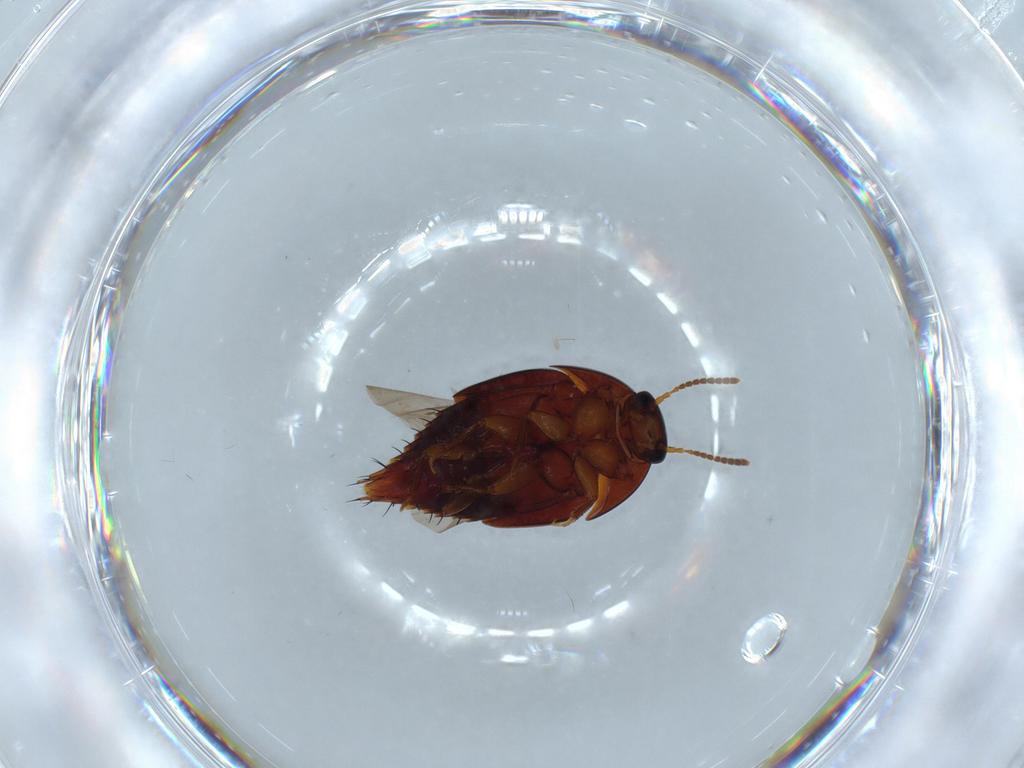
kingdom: Animalia
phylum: Arthropoda
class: Insecta
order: Coleoptera
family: Staphylinidae
